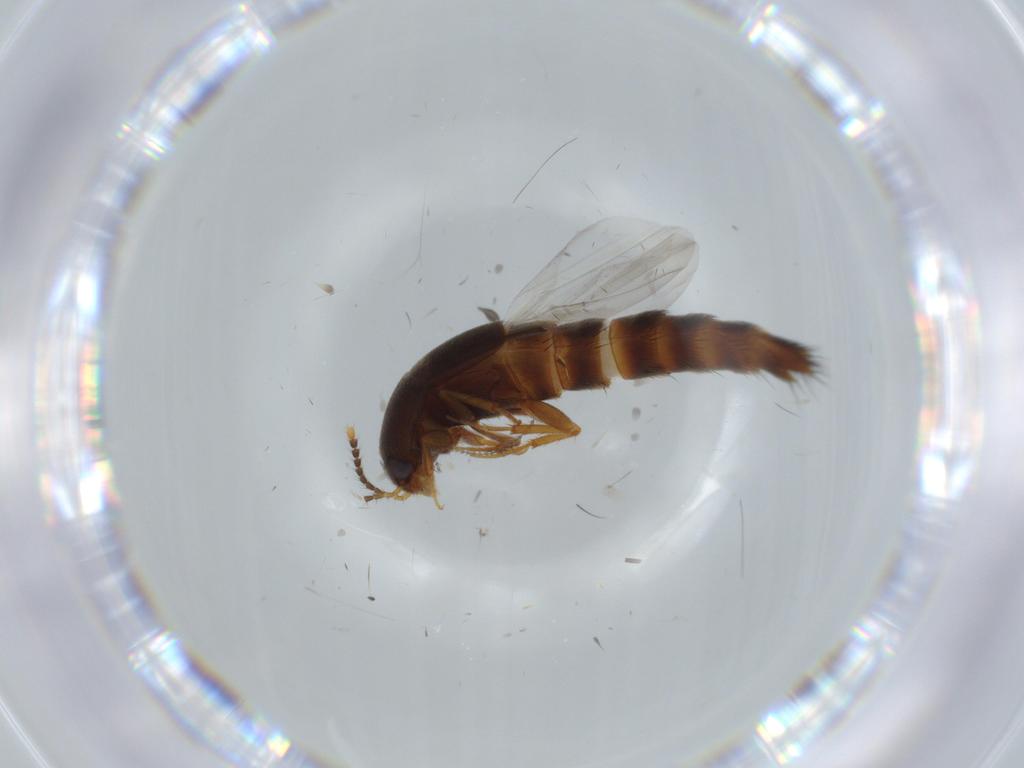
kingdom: Animalia
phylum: Arthropoda
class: Insecta
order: Coleoptera
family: Staphylinidae
